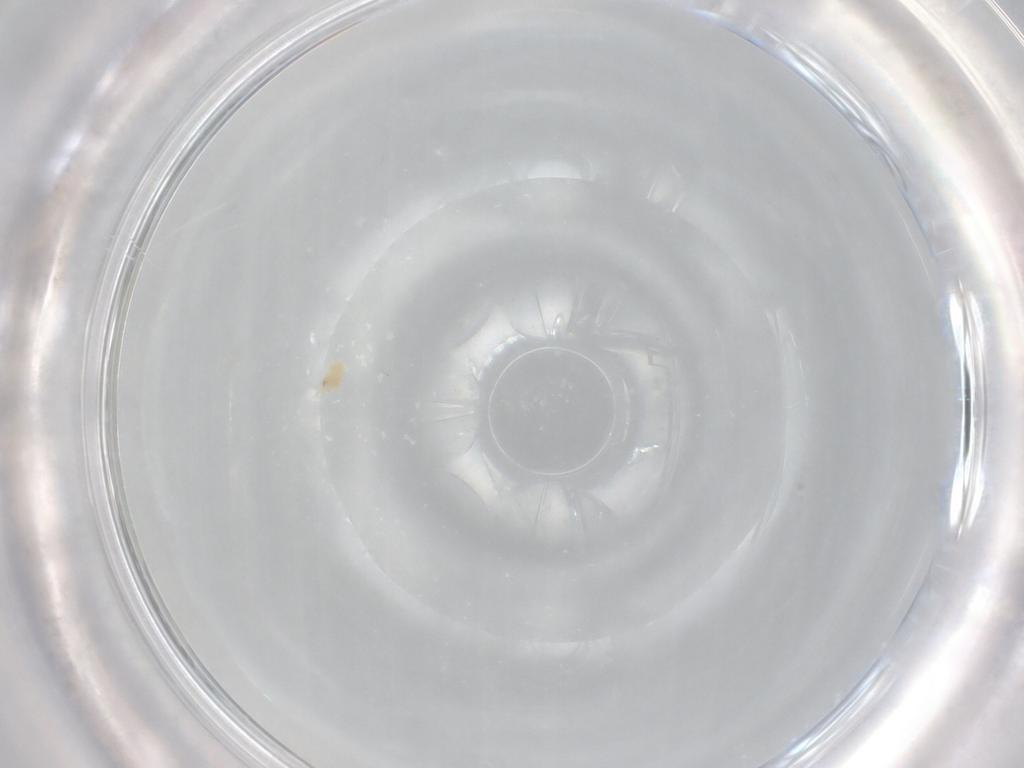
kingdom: Animalia
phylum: Arthropoda
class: Arachnida
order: Trombidiformes
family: Eupodidae
